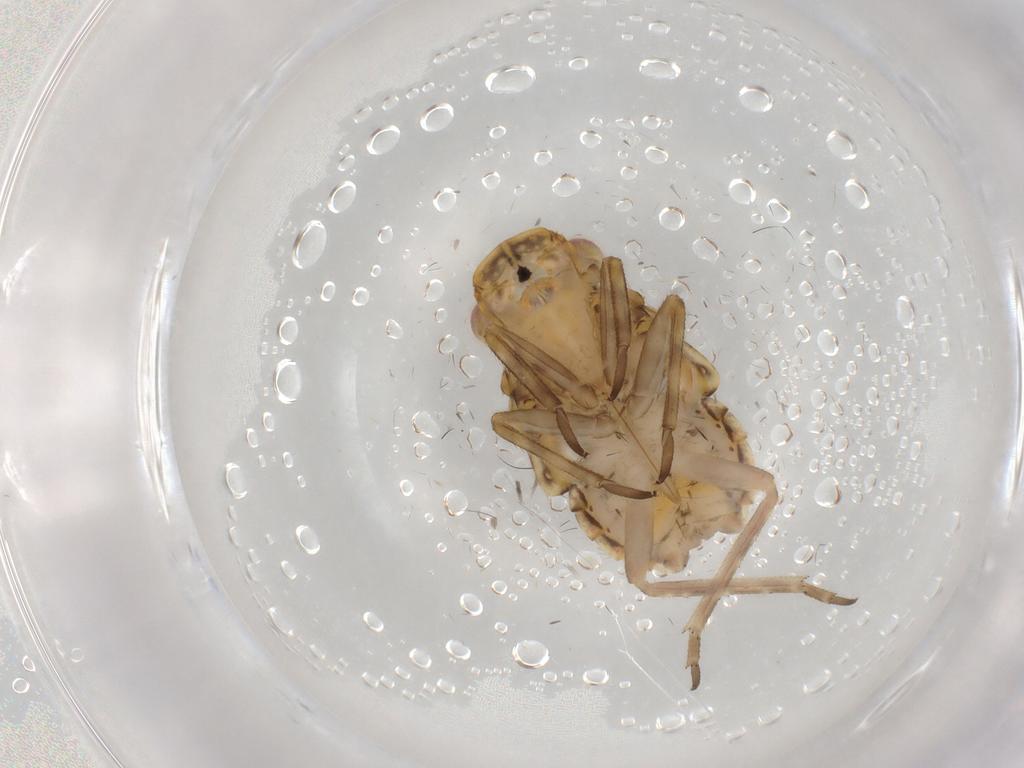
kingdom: Animalia
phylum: Arthropoda
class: Insecta
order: Hemiptera
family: Fulgoridae
